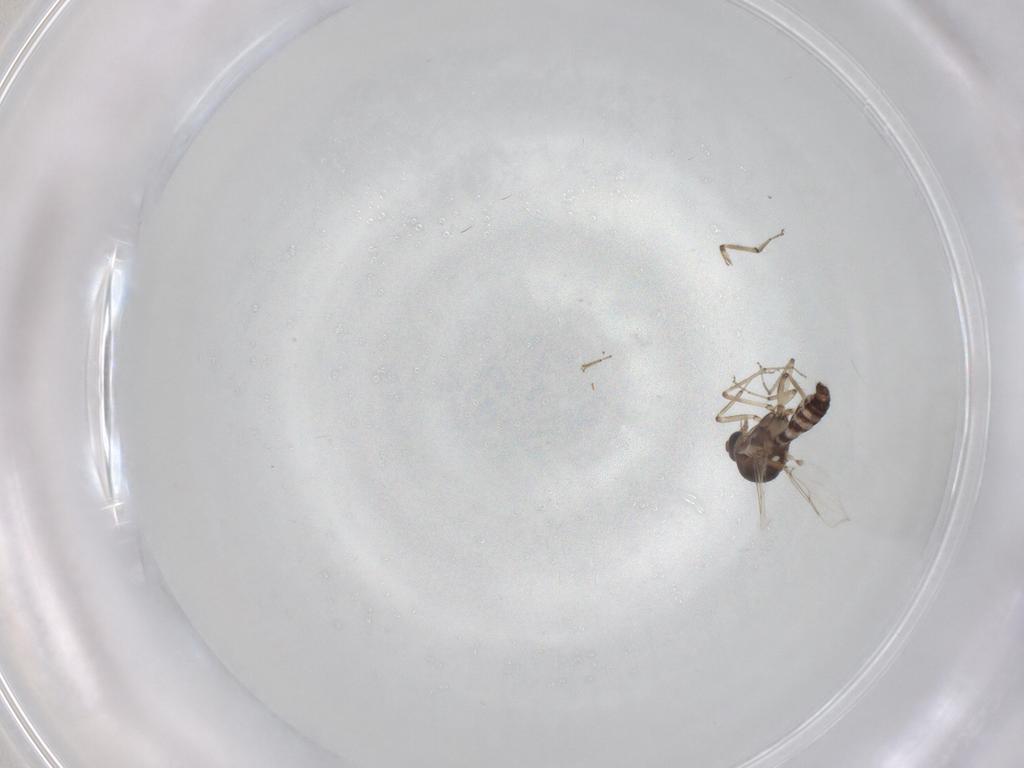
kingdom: Animalia
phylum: Arthropoda
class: Insecta
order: Diptera
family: Ceratopogonidae
